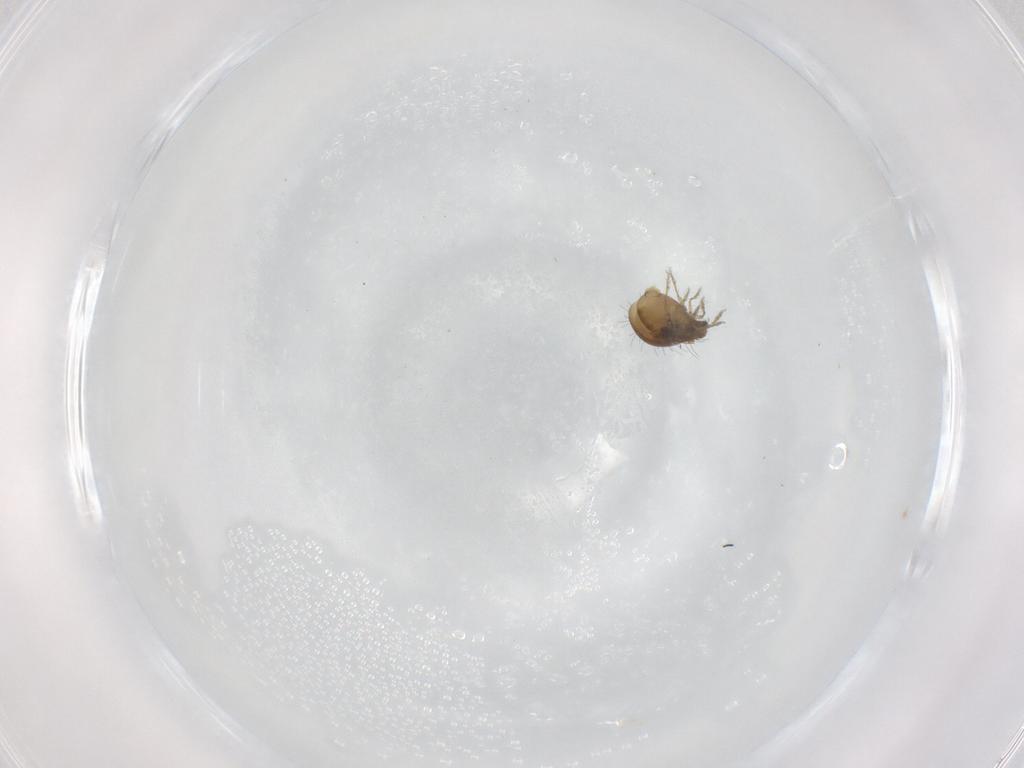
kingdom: Animalia
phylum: Arthropoda
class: Arachnida
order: Sarcoptiformes
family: Humerobatidae
